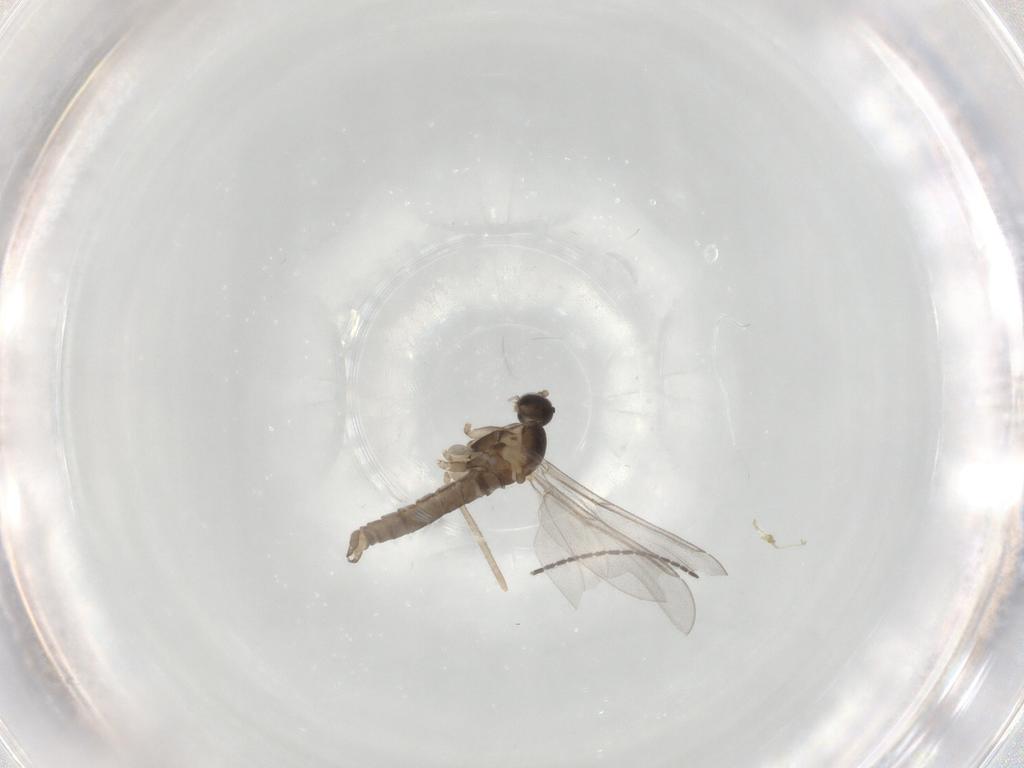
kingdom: Animalia
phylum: Arthropoda
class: Insecta
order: Diptera
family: Cecidomyiidae
